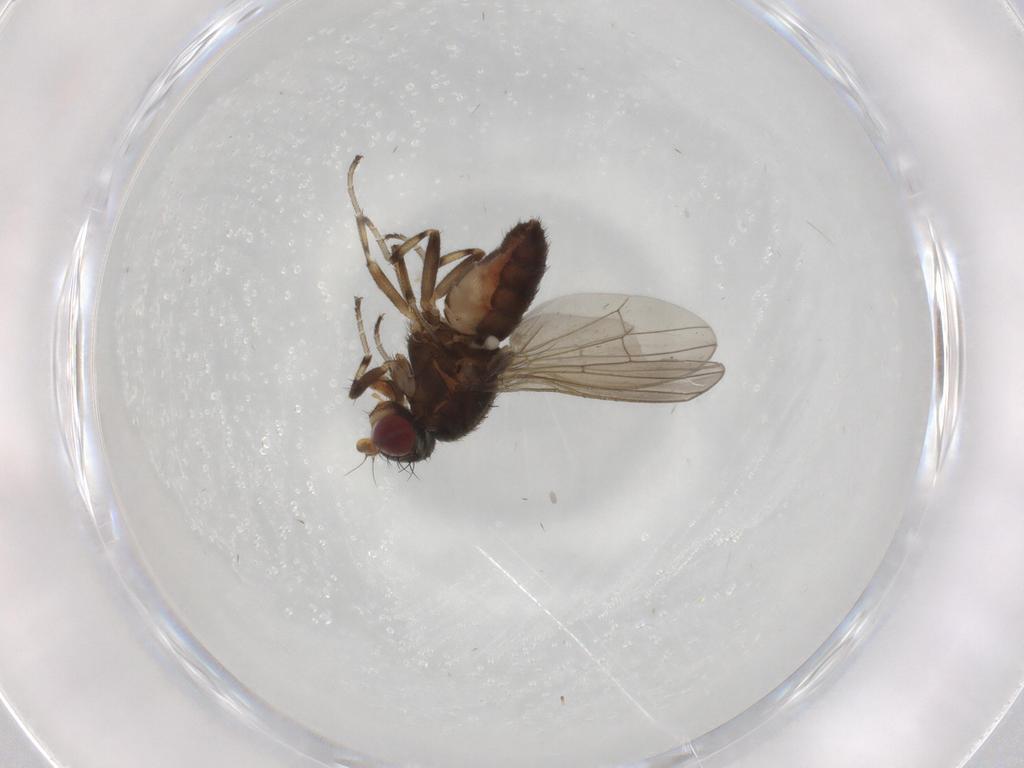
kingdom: Animalia
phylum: Arthropoda
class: Insecta
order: Diptera
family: Heleomyzidae
